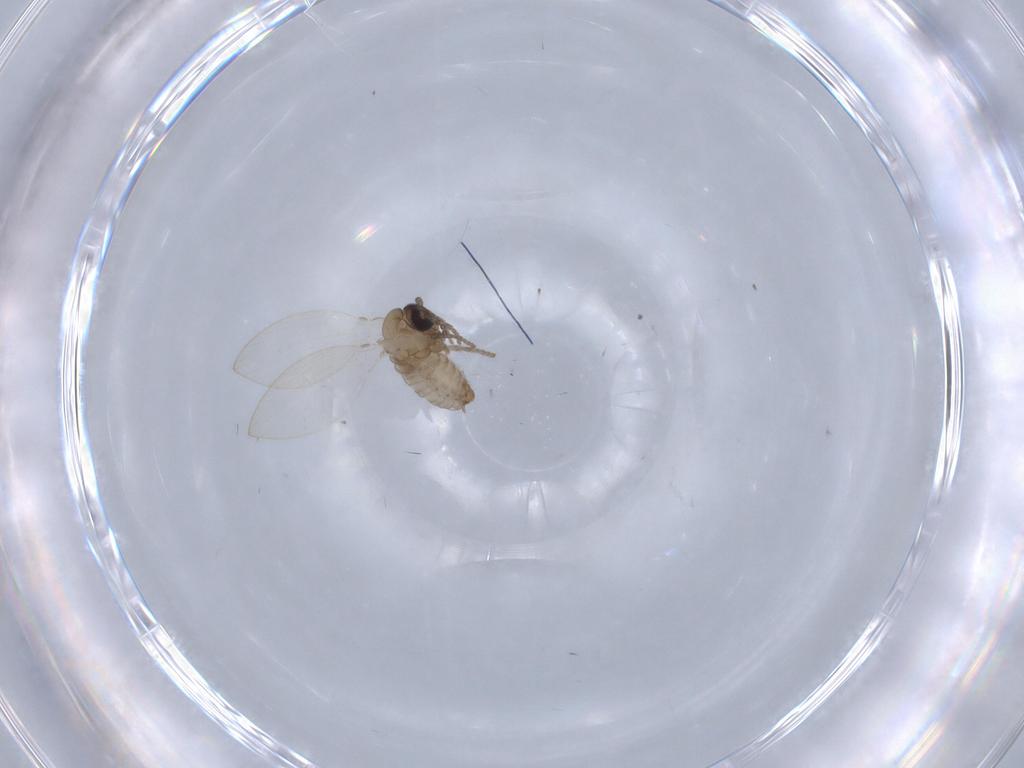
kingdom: Animalia
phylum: Arthropoda
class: Insecta
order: Diptera
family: Psychodidae
